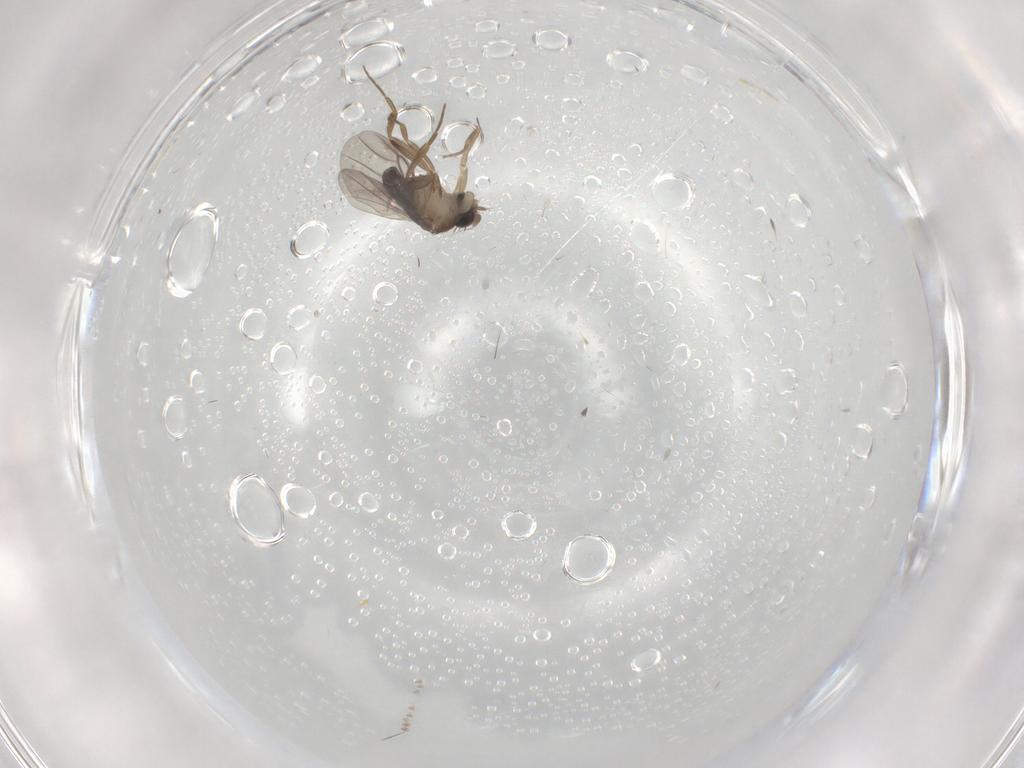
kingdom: Animalia
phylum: Arthropoda
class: Insecta
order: Diptera
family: Phoridae
